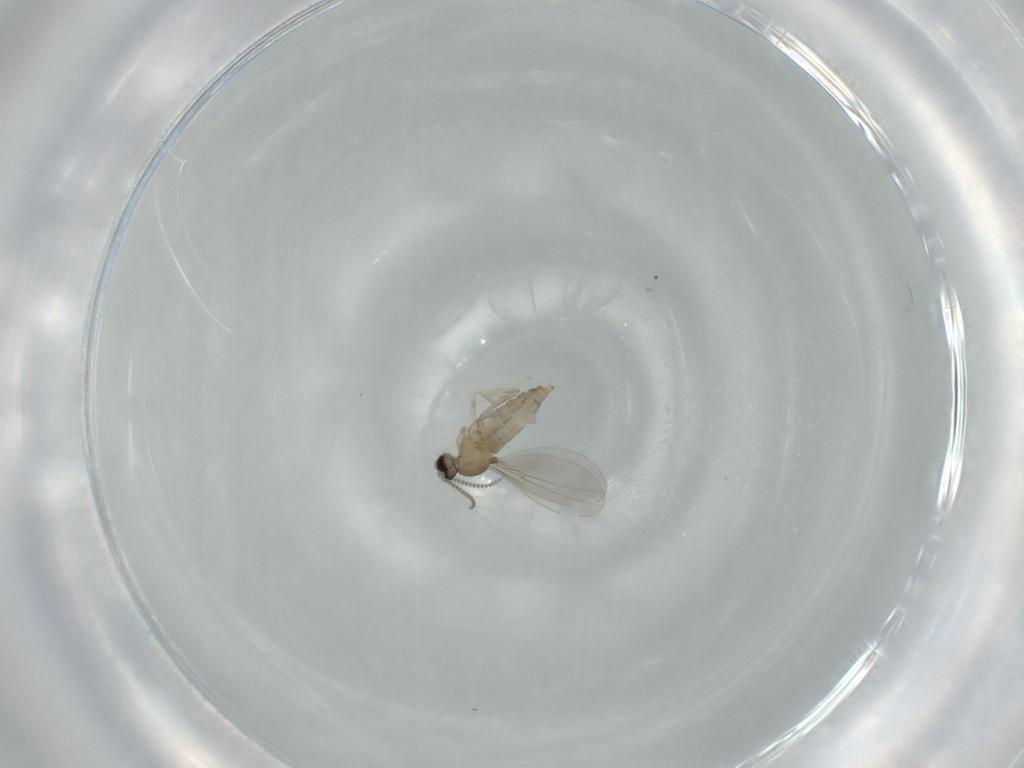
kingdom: Animalia
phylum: Arthropoda
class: Insecta
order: Diptera
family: Cecidomyiidae
